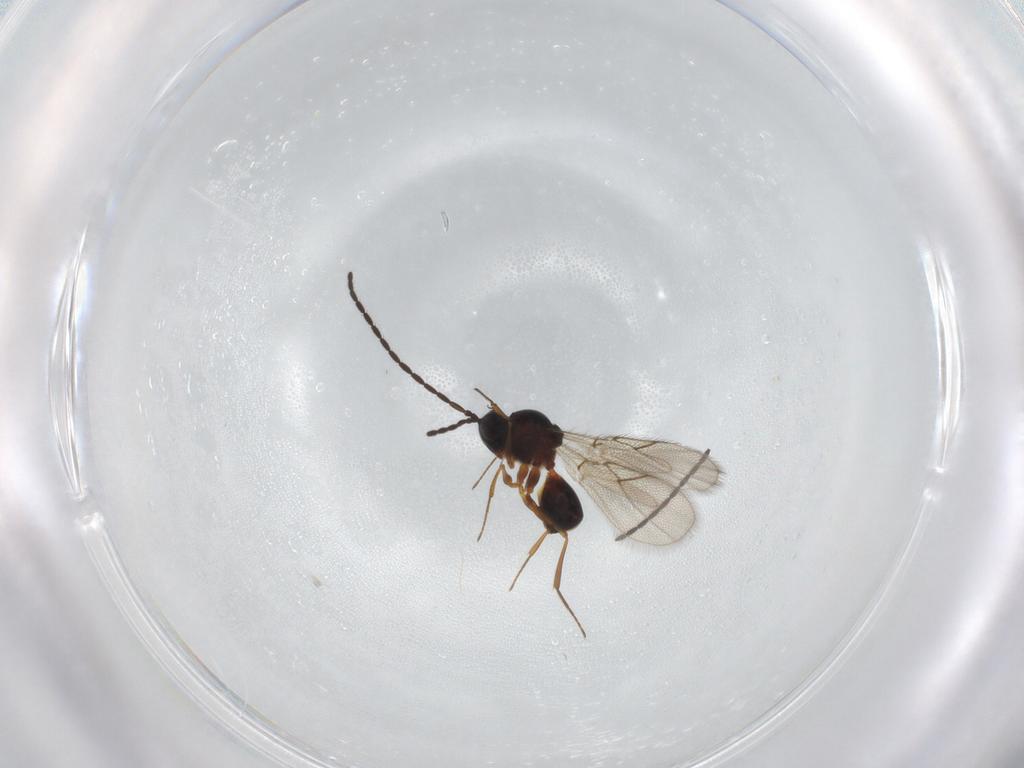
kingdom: Animalia
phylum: Arthropoda
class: Insecta
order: Hymenoptera
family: Figitidae
